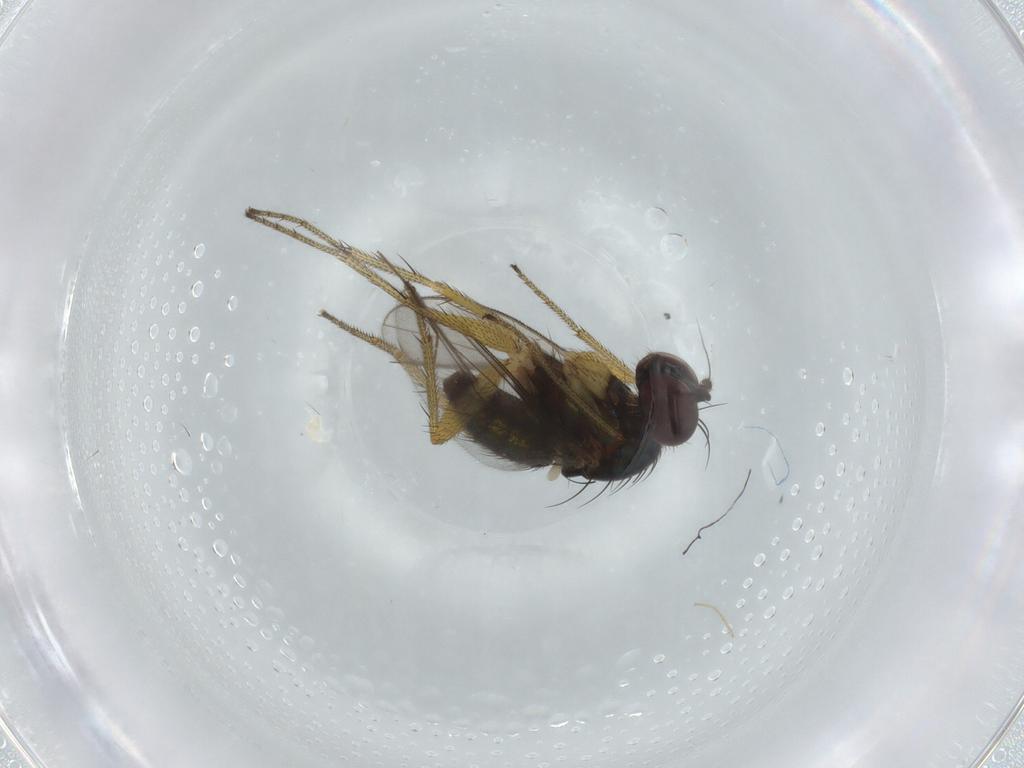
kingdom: Animalia
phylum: Arthropoda
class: Insecta
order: Diptera
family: Dolichopodidae
